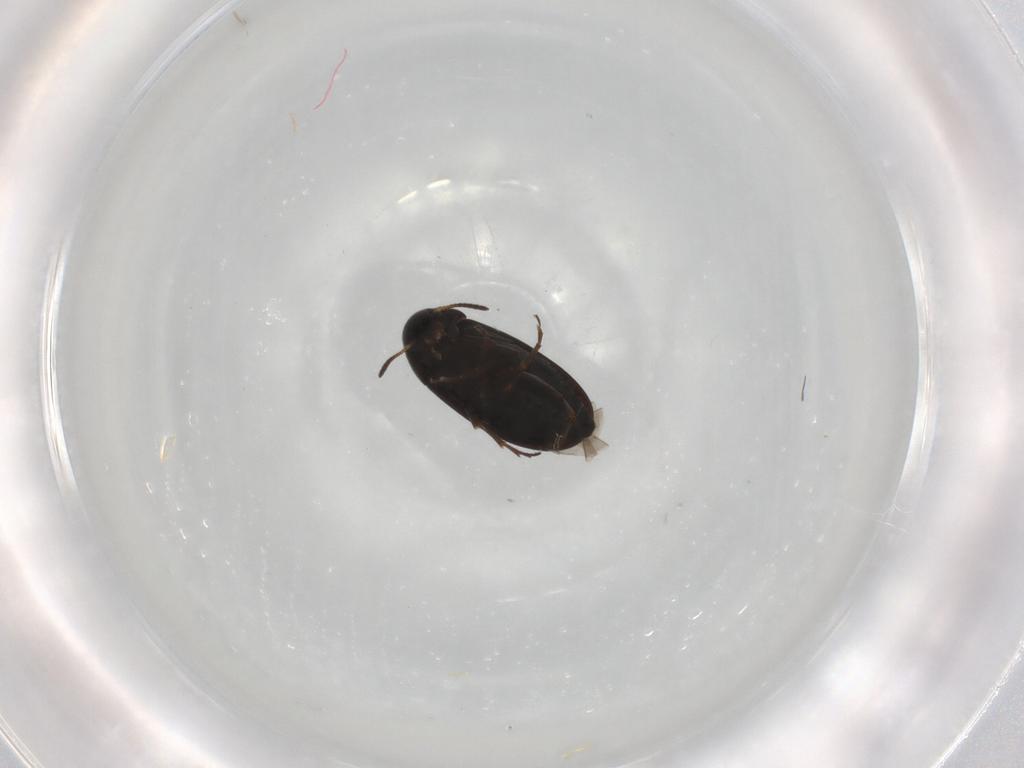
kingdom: Animalia
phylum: Arthropoda
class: Insecta
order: Coleoptera
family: Scraptiidae
